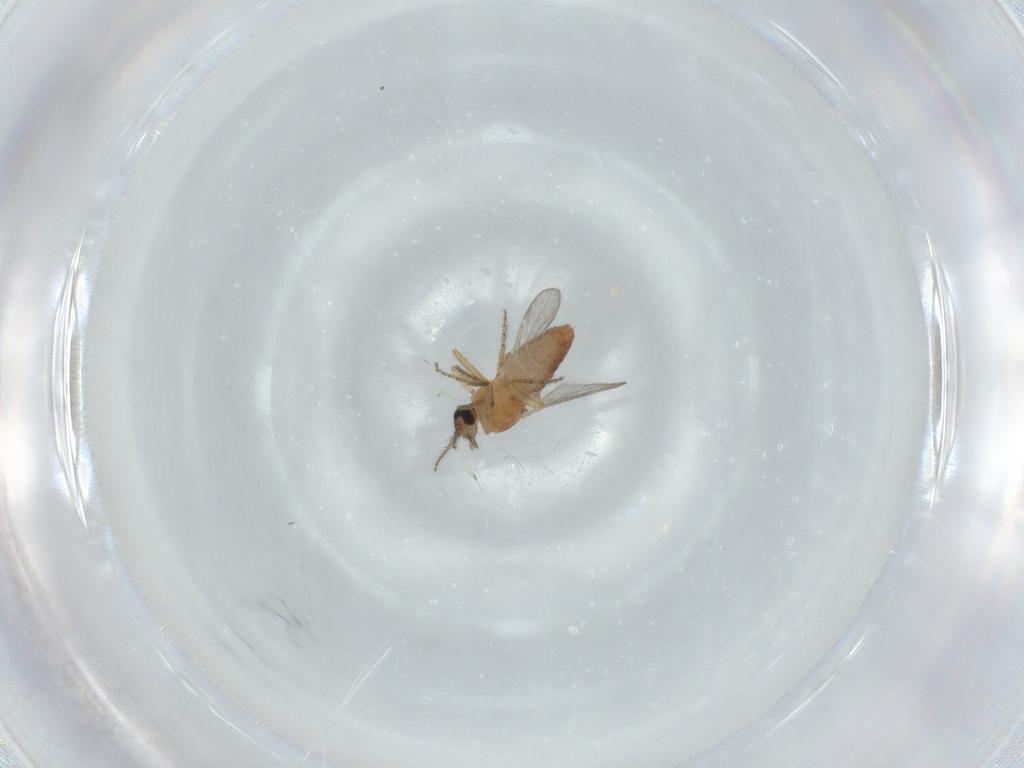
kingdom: Animalia
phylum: Arthropoda
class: Insecta
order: Diptera
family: Ceratopogonidae
